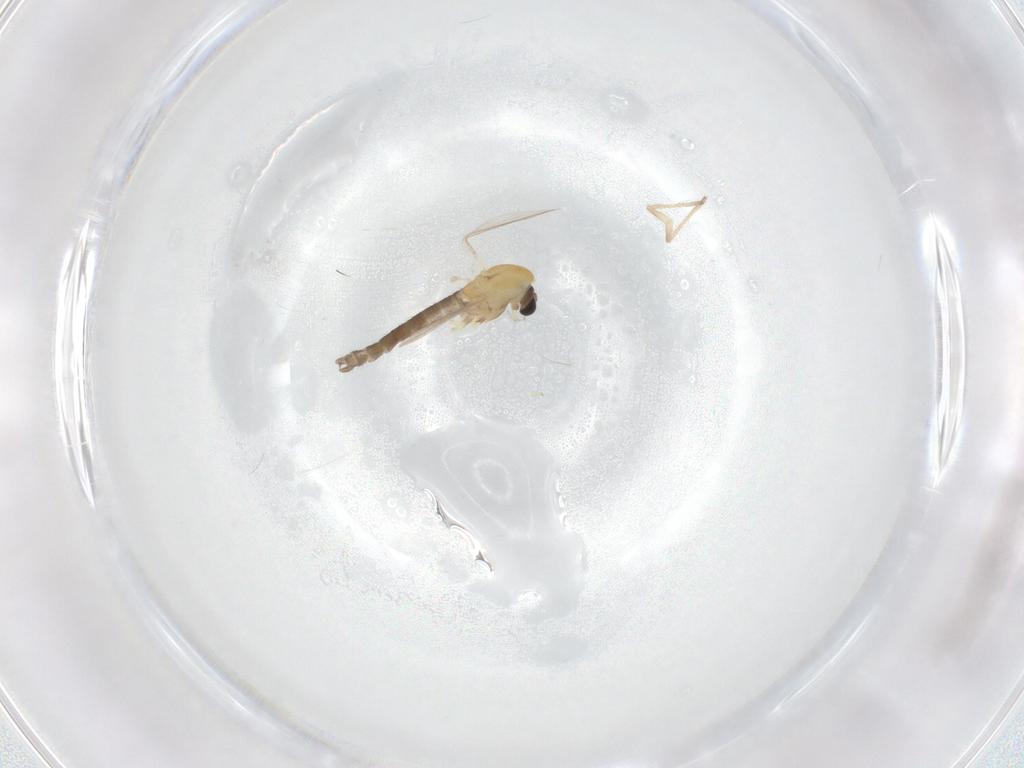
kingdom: Animalia
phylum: Arthropoda
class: Insecta
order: Diptera
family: Chironomidae
